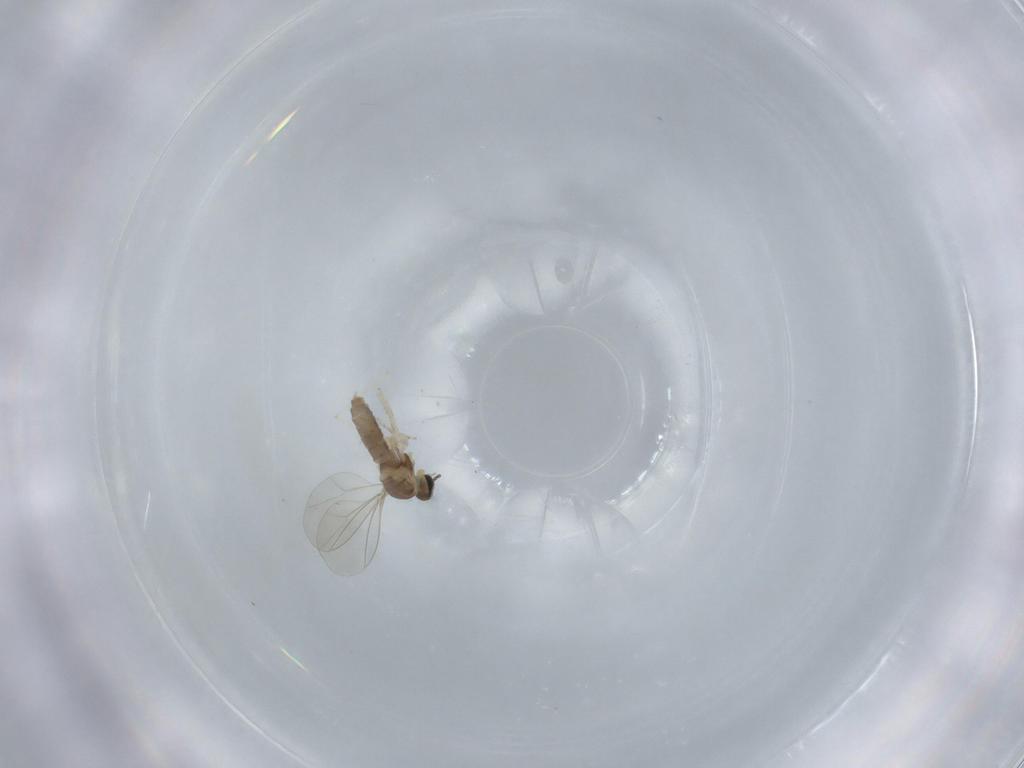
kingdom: Animalia
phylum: Arthropoda
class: Insecta
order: Diptera
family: Cecidomyiidae
